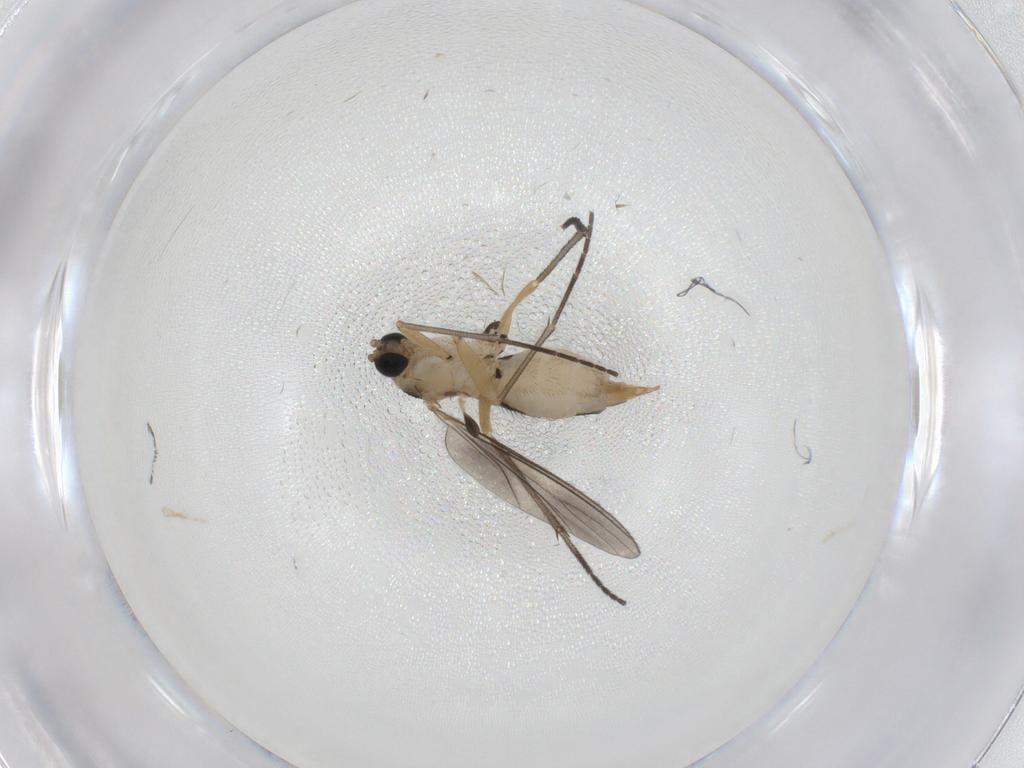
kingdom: Animalia
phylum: Arthropoda
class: Insecta
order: Diptera
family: Sciaridae
